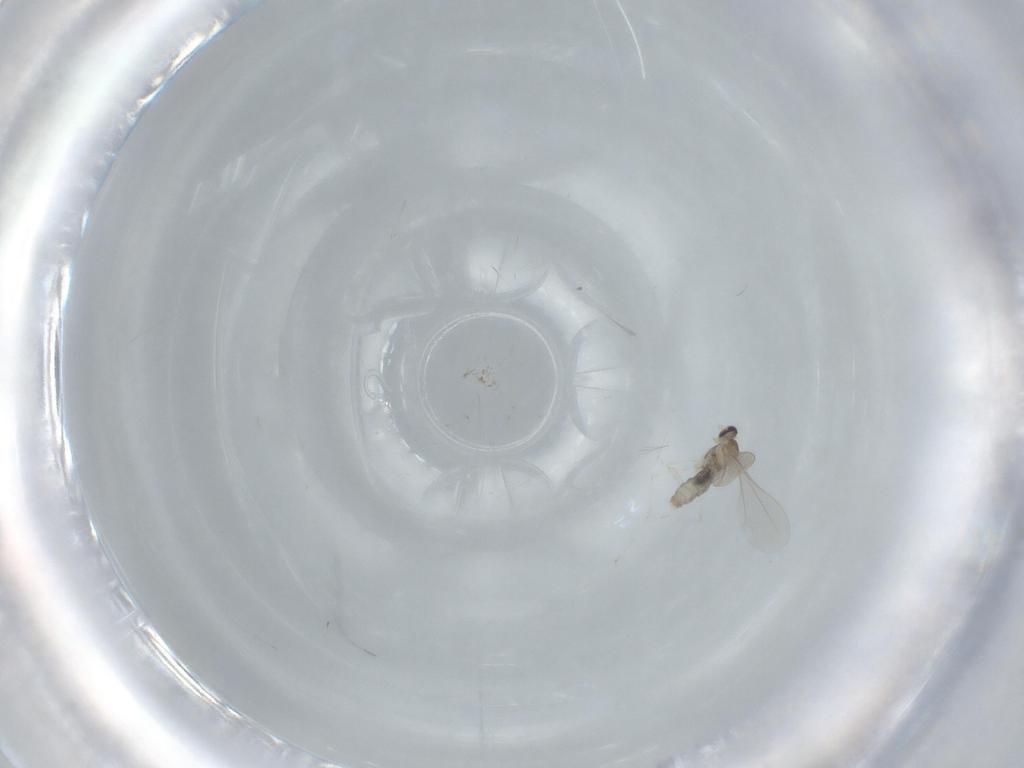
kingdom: Animalia
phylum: Arthropoda
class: Insecta
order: Diptera
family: Cecidomyiidae
